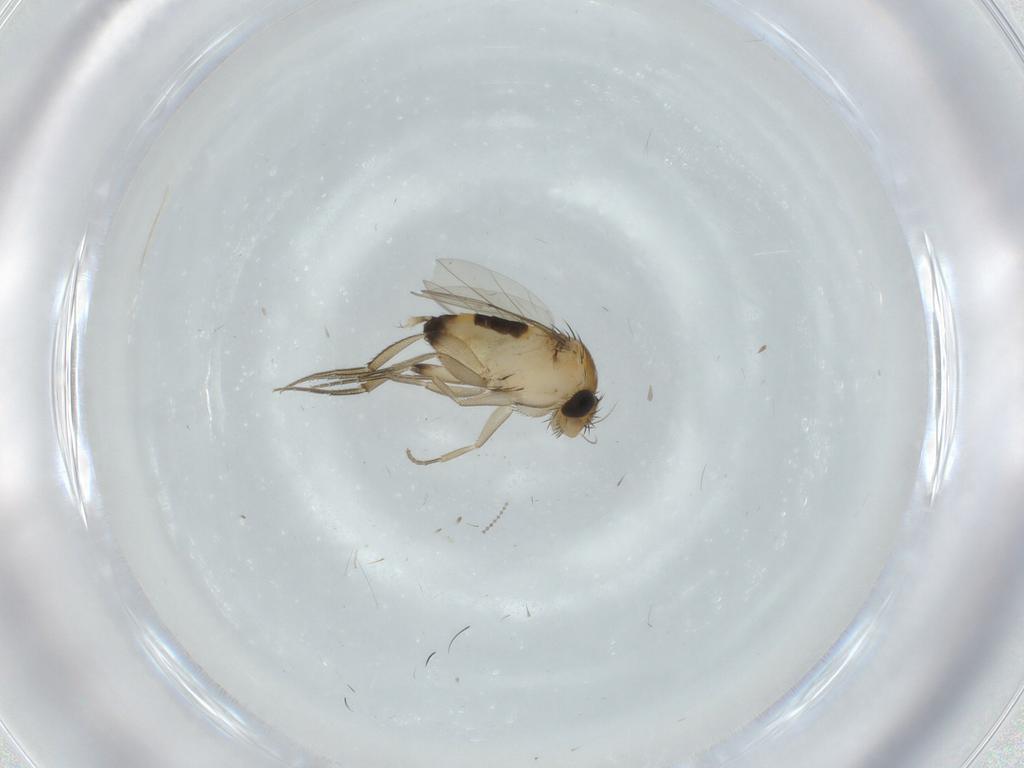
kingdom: Animalia
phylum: Arthropoda
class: Insecta
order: Diptera
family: Phoridae
